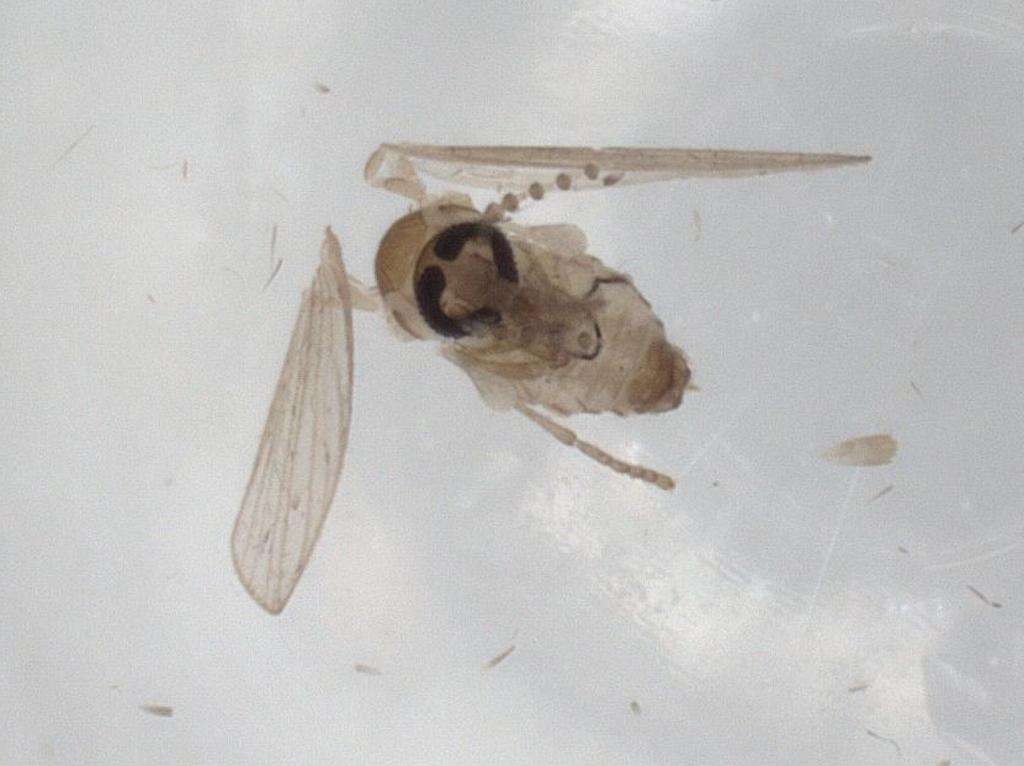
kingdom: Animalia
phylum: Arthropoda
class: Insecta
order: Diptera
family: Psychodidae
